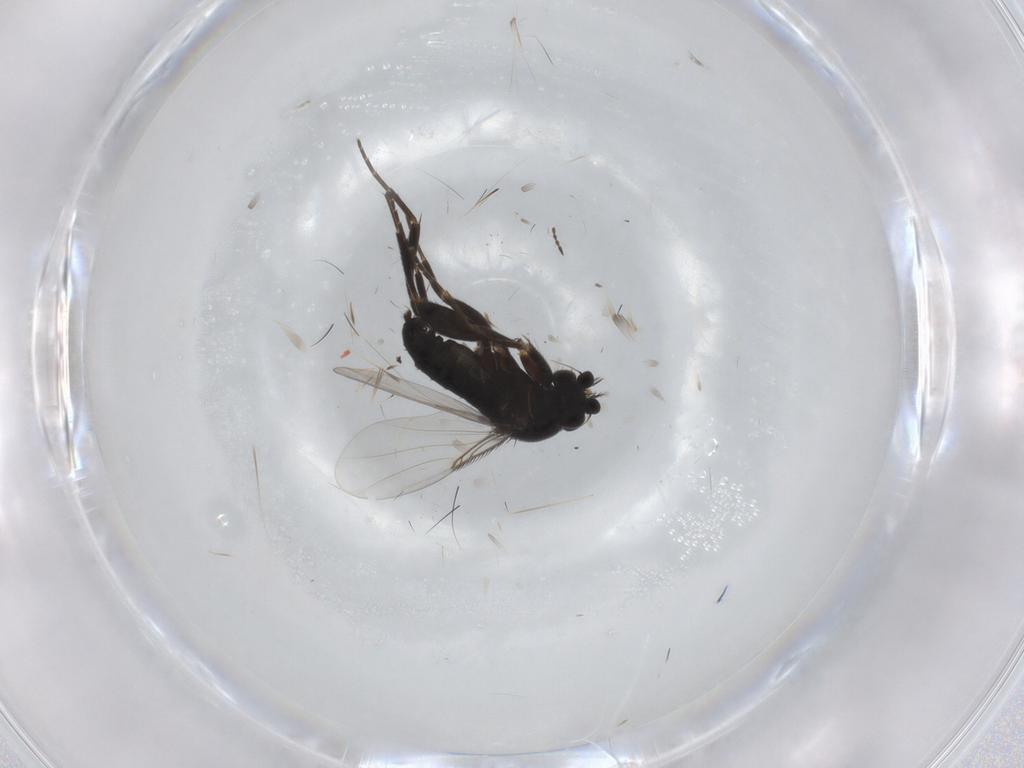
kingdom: Animalia
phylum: Arthropoda
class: Insecta
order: Diptera
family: Phoridae
